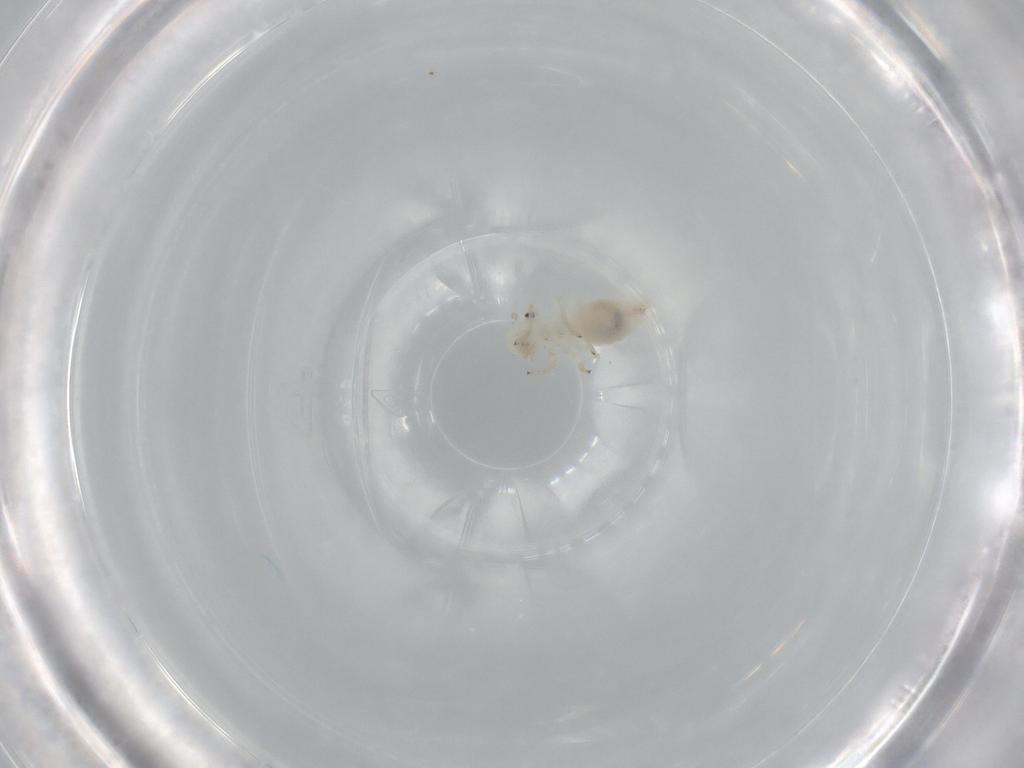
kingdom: Animalia
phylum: Arthropoda
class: Insecta
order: Psocodea
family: Caeciliusidae
